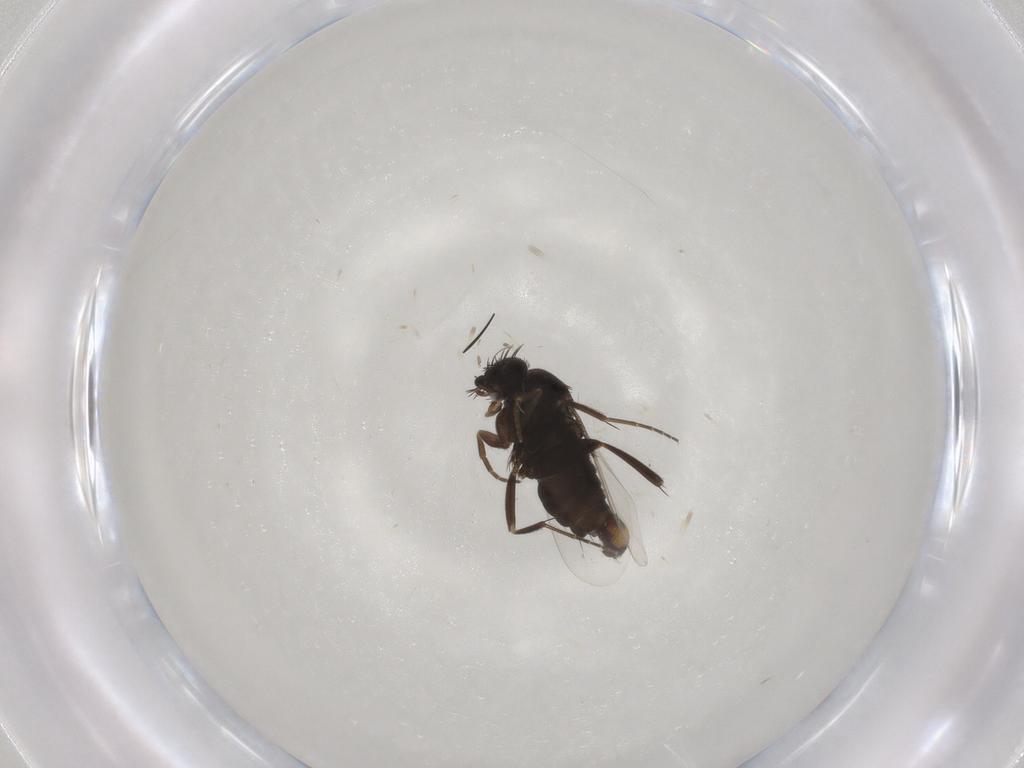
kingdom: Animalia
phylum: Arthropoda
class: Insecta
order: Diptera
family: Phoridae
